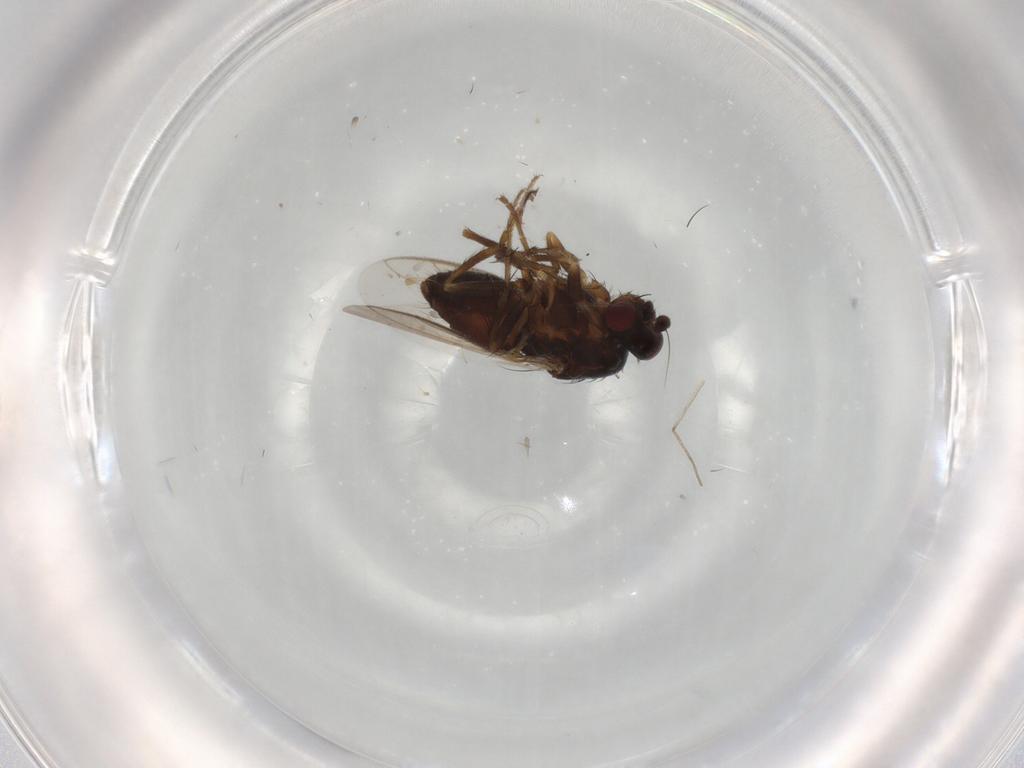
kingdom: Animalia
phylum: Arthropoda
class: Insecta
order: Diptera
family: Sphaeroceridae
